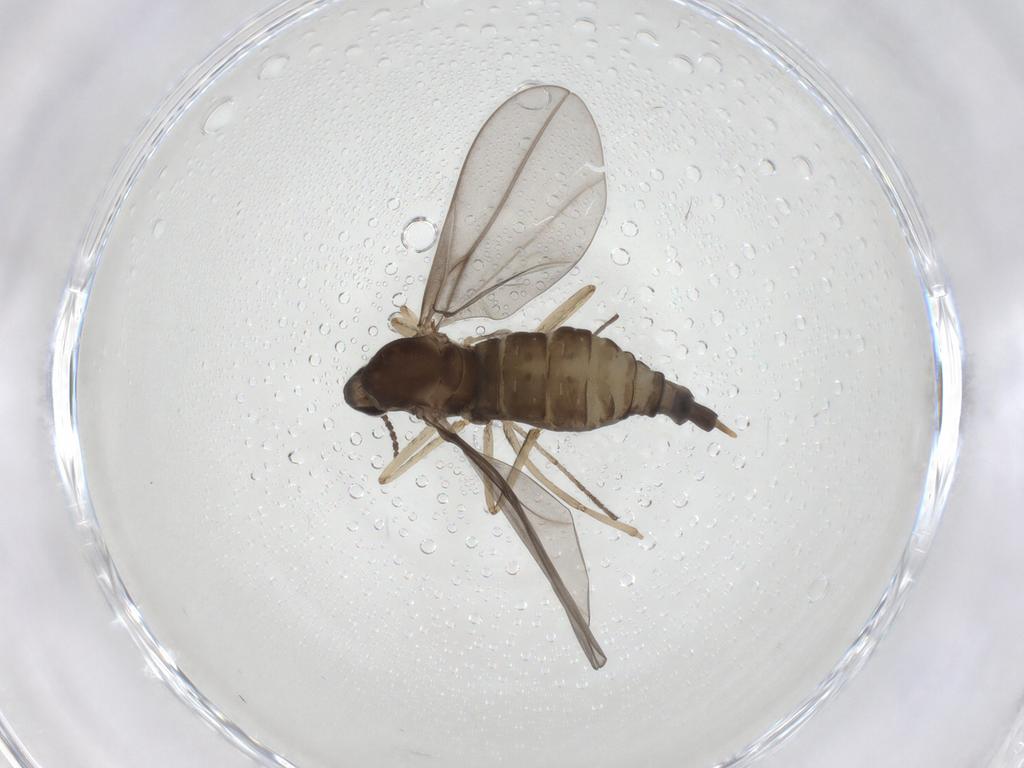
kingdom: Animalia
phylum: Arthropoda
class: Insecta
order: Diptera
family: Cecidomyiidae
